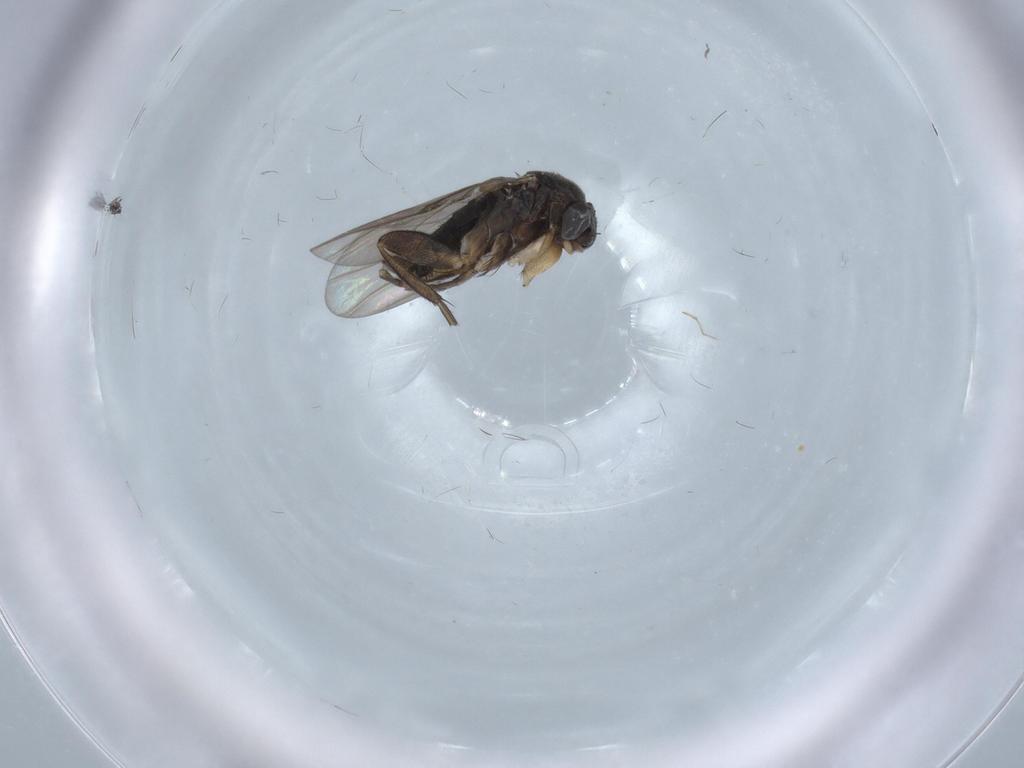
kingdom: Animalia
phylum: Arthropoda
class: Insecta
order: Diptera
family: Phoridae
